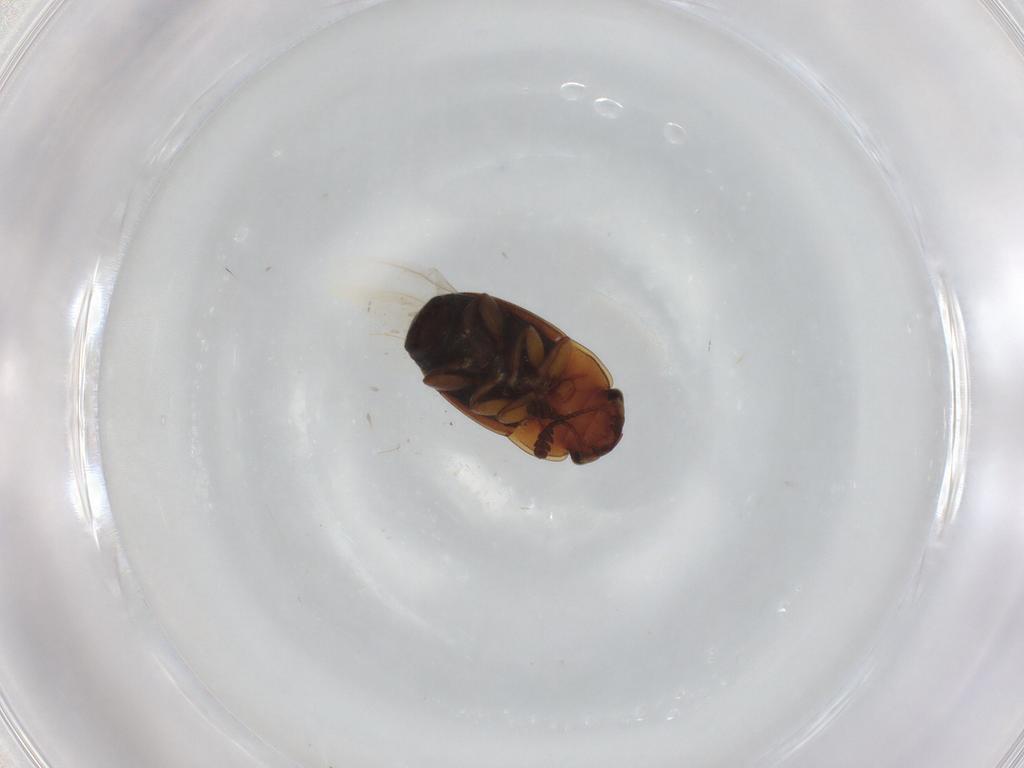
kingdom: Animalia
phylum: Arthropoda
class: Insecta
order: Coleoptera
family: Nitidulidae
